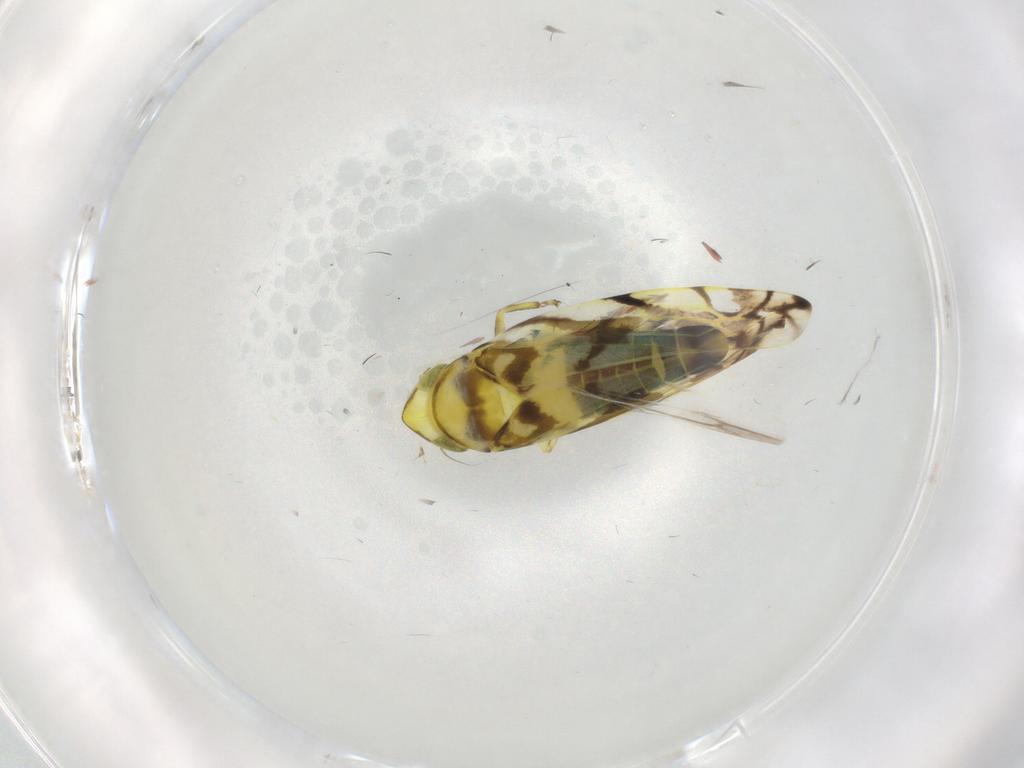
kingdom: Animalia
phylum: Arthropoda
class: Insecta
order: Hemiptera
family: Cicadellidae
